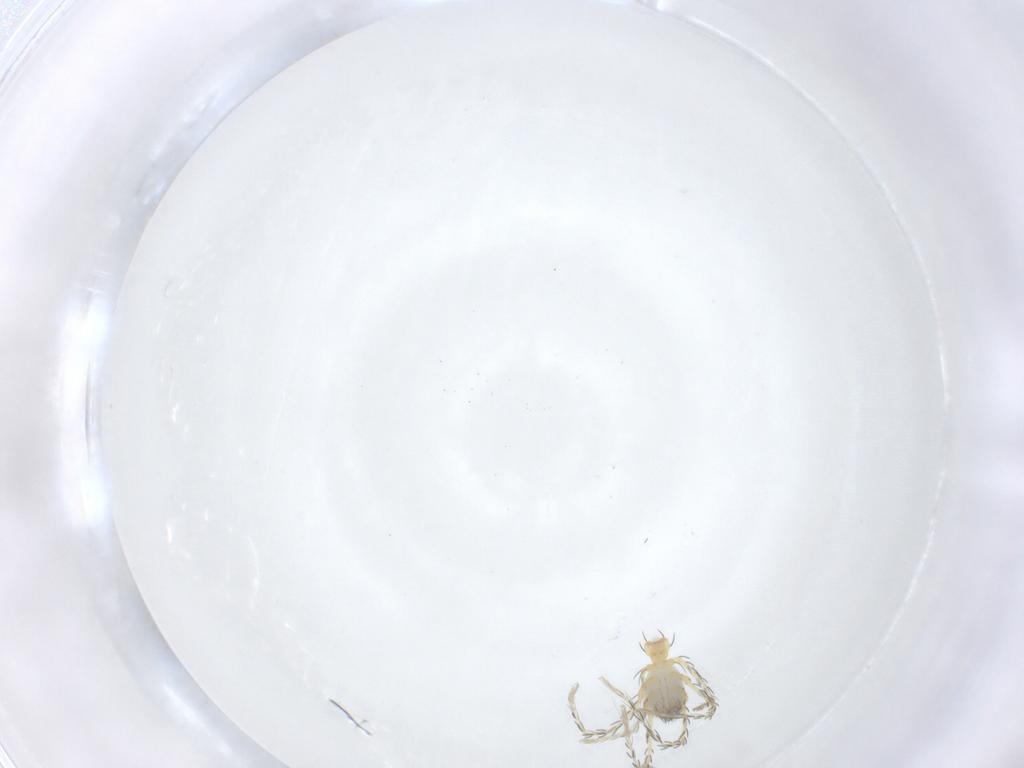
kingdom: Animalia
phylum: Arthropoda
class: Arachnida
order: Trombidiformes
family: Erythraeidae
